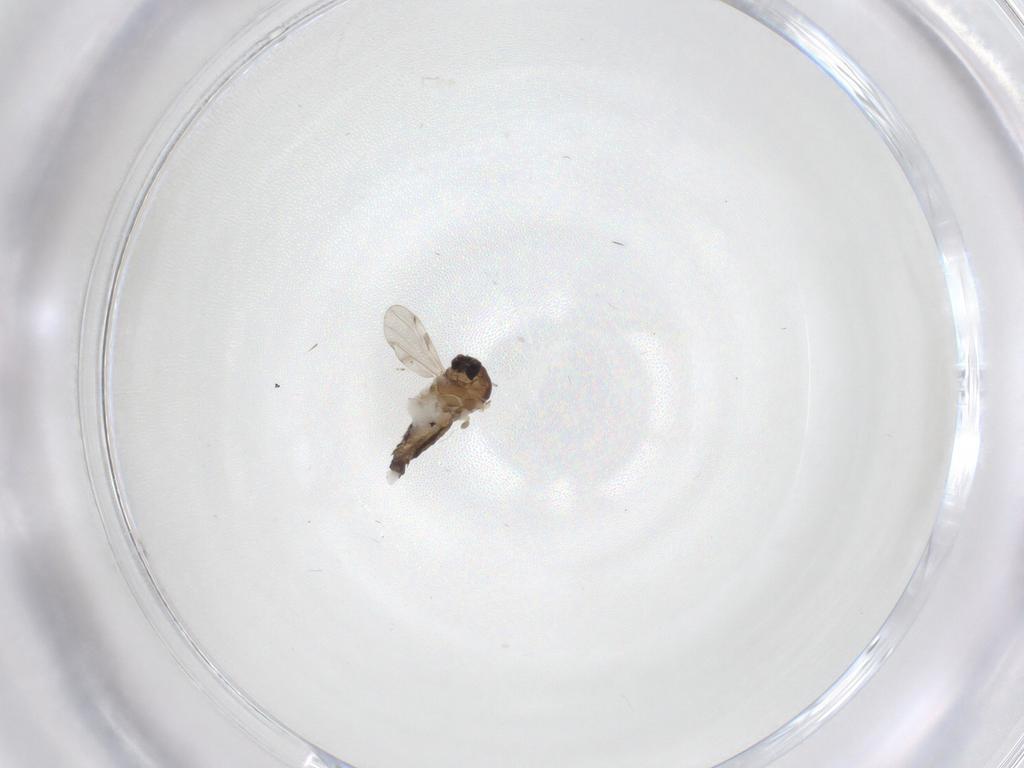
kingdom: Animalia
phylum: Arthropoda
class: Insecta
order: Diptera
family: Ceratopogonidae
